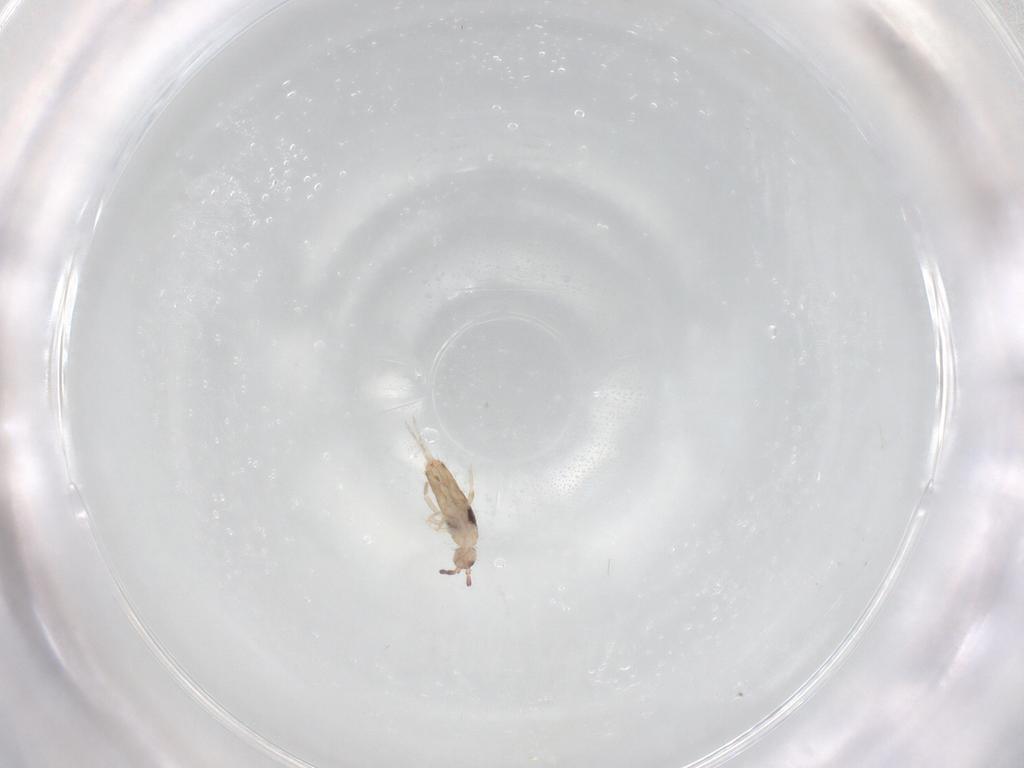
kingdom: Animalia
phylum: Arthropoda
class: Collembola
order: Entomobryomorpha
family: Entomobryidae
